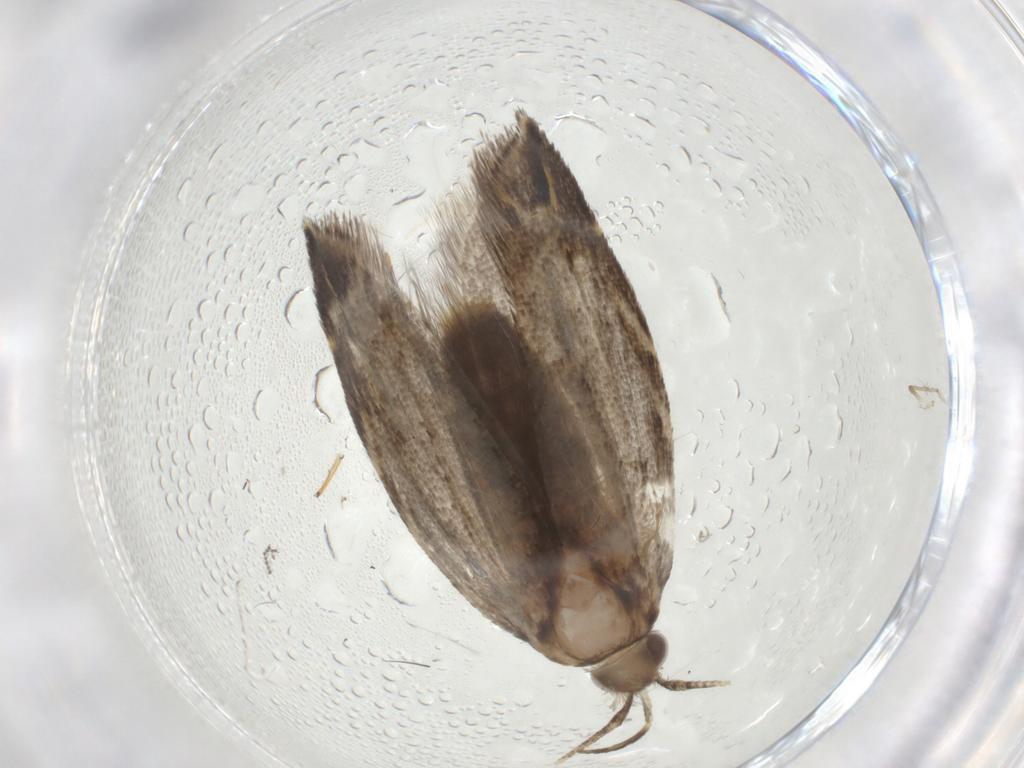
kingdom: Animalia
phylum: Arthropoda
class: Insecta
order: Lepidoptera
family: Gelechiidae
